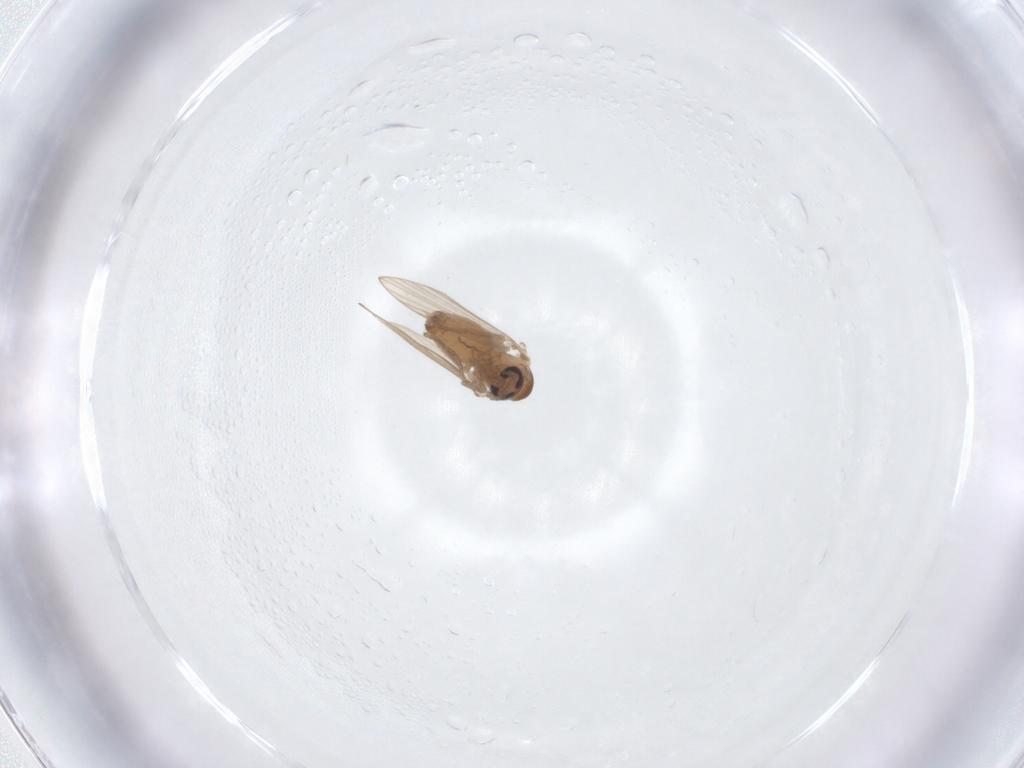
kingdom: Animalia
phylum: Arthropoda
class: Insecta
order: Diptera
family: Psychodidae
